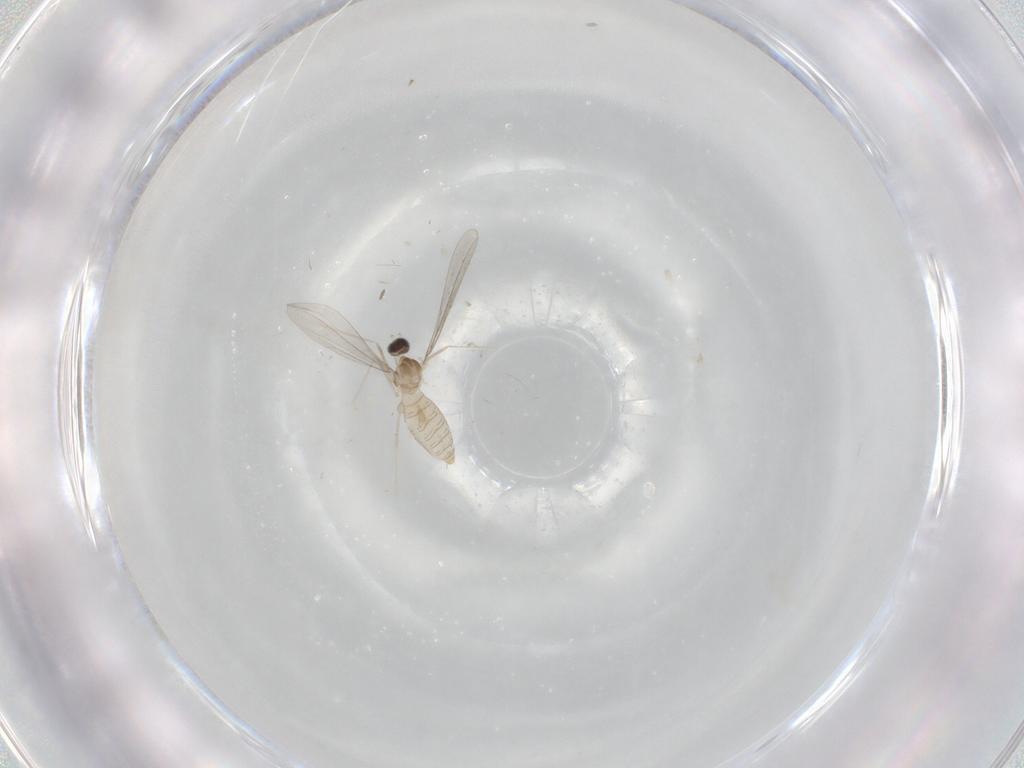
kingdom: Animalia
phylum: Arthropoda
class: Insecta
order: Diptera
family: Cecidomyiidae
